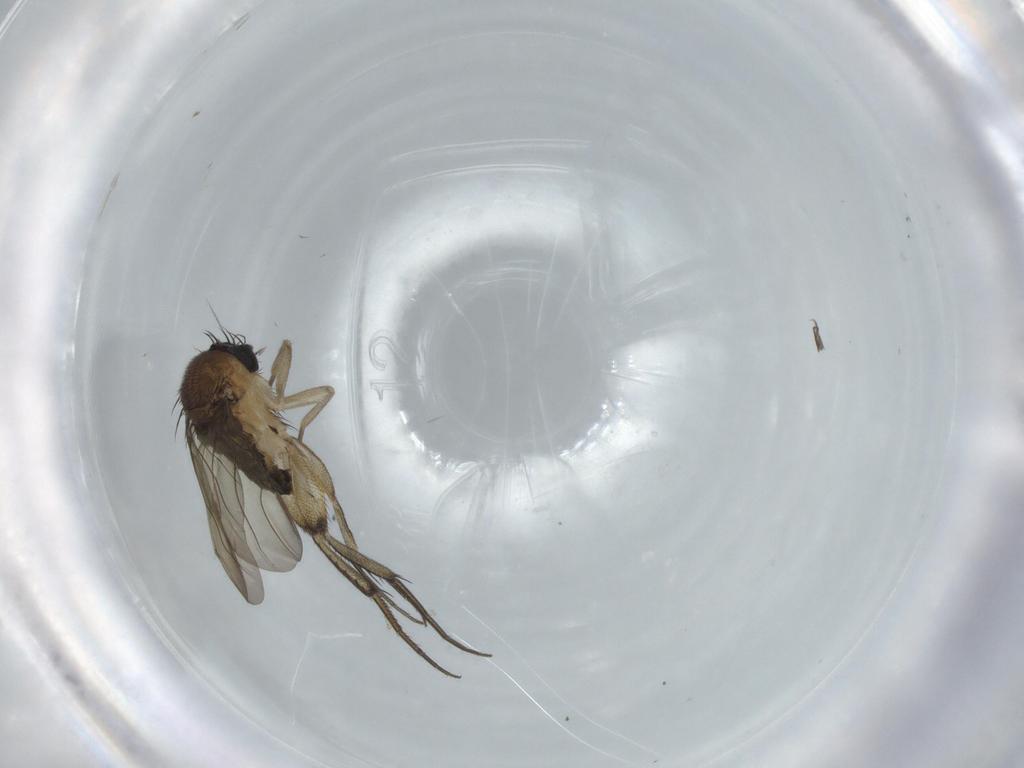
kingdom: Animalia
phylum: Arthropoda
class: Insecta
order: Diptera
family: Phoridae
